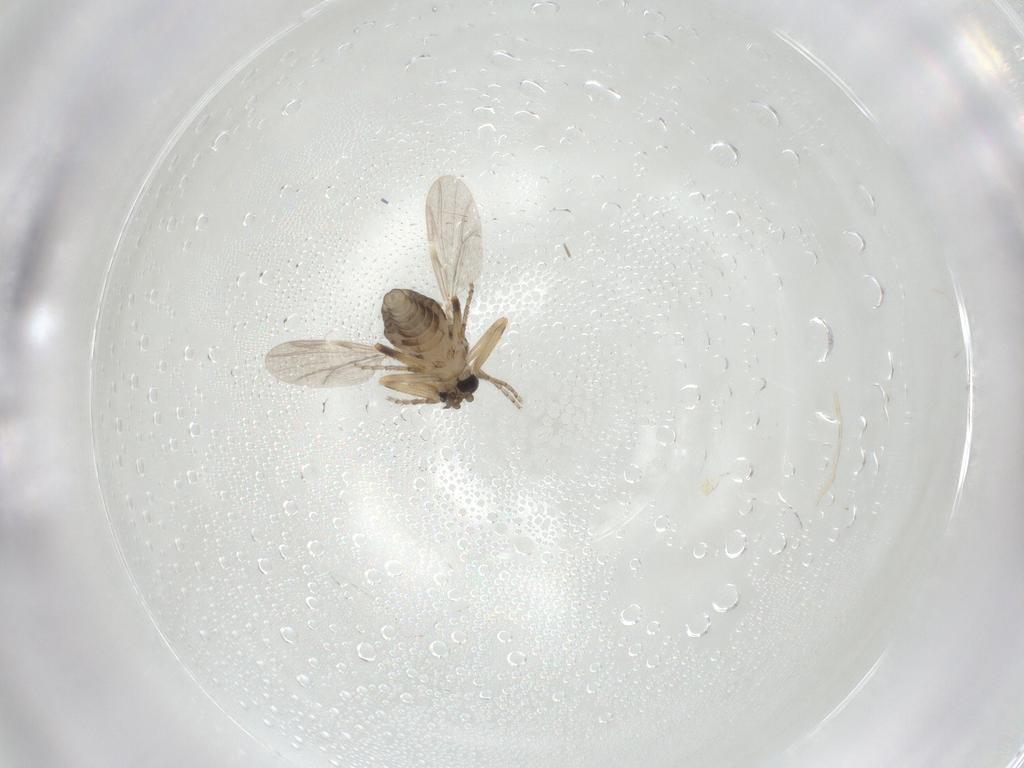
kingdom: Animalia
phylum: Arthropoda
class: Insecta
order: Diptera
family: Ceratopogonidae
